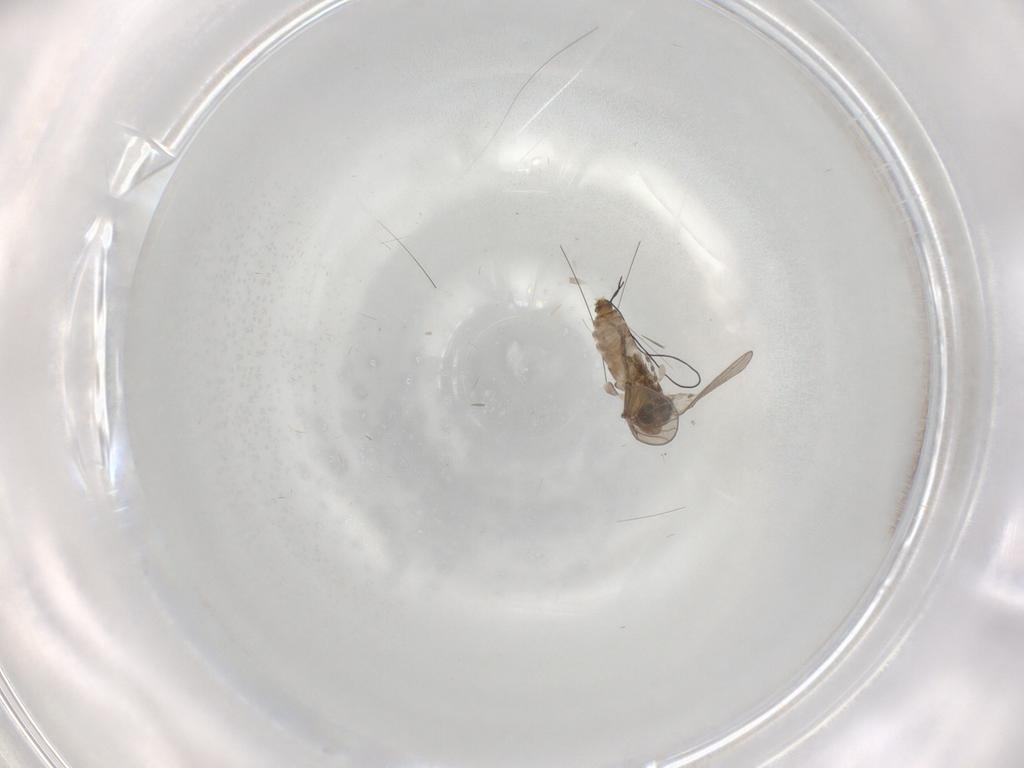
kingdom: Animalia
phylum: Arthropoda
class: Insecta
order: Diptera
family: Psychodidae
